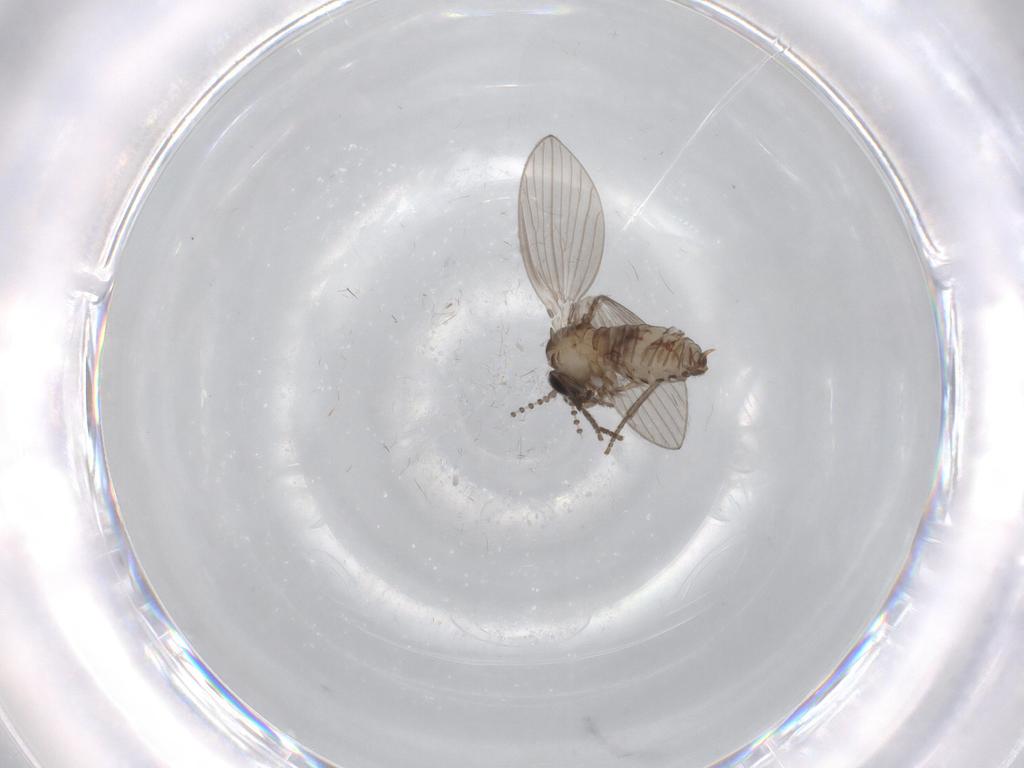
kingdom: Animalia
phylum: Arthropoda
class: Insecta
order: Diptera
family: Psychodidae
